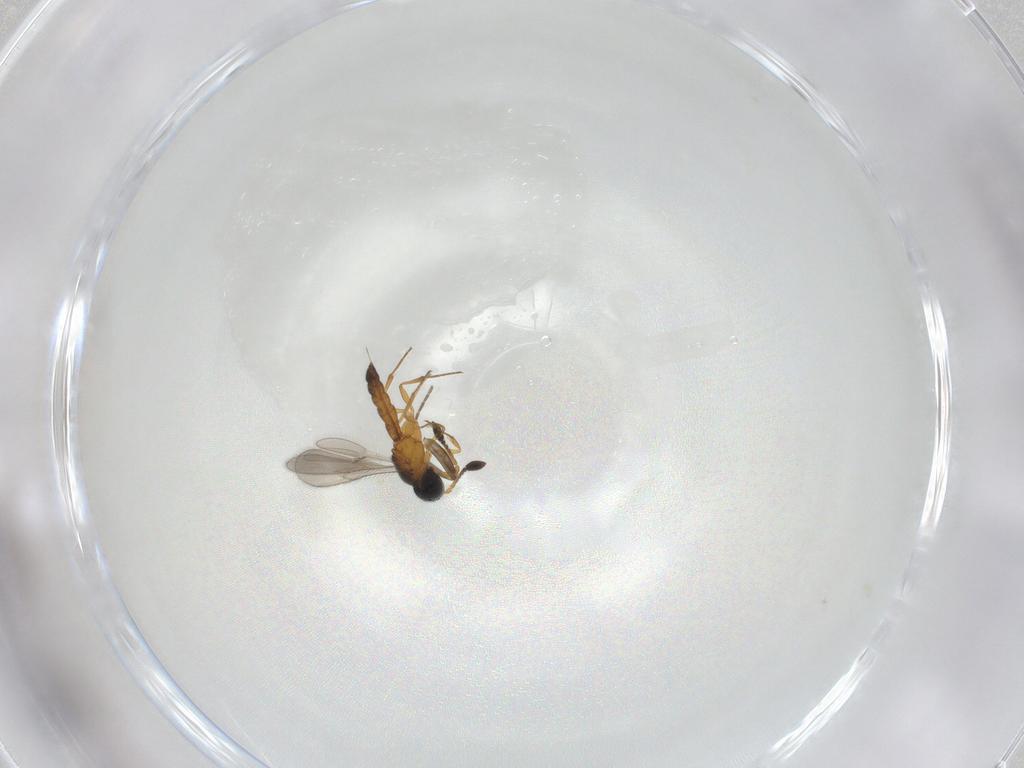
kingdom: Animalia
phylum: Arthropoda
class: Insecta
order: Hymenoptera
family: Scelionidae
